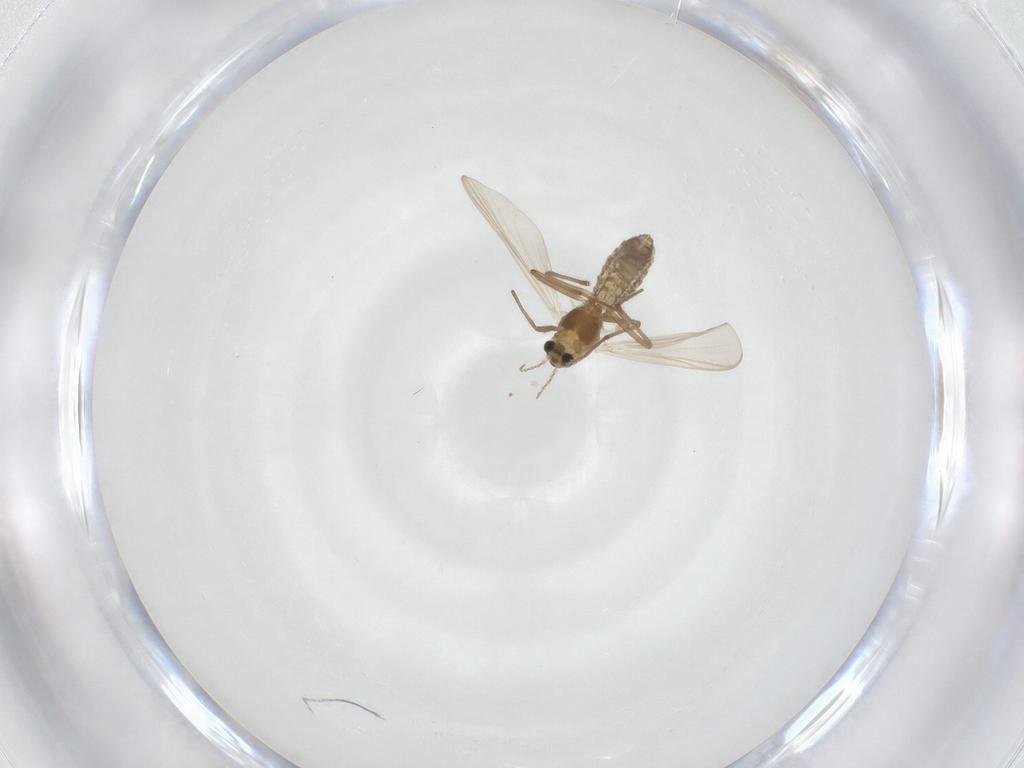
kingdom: Animalia
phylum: Arthropoda
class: Insecta
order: Diptera
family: Chironomidae
